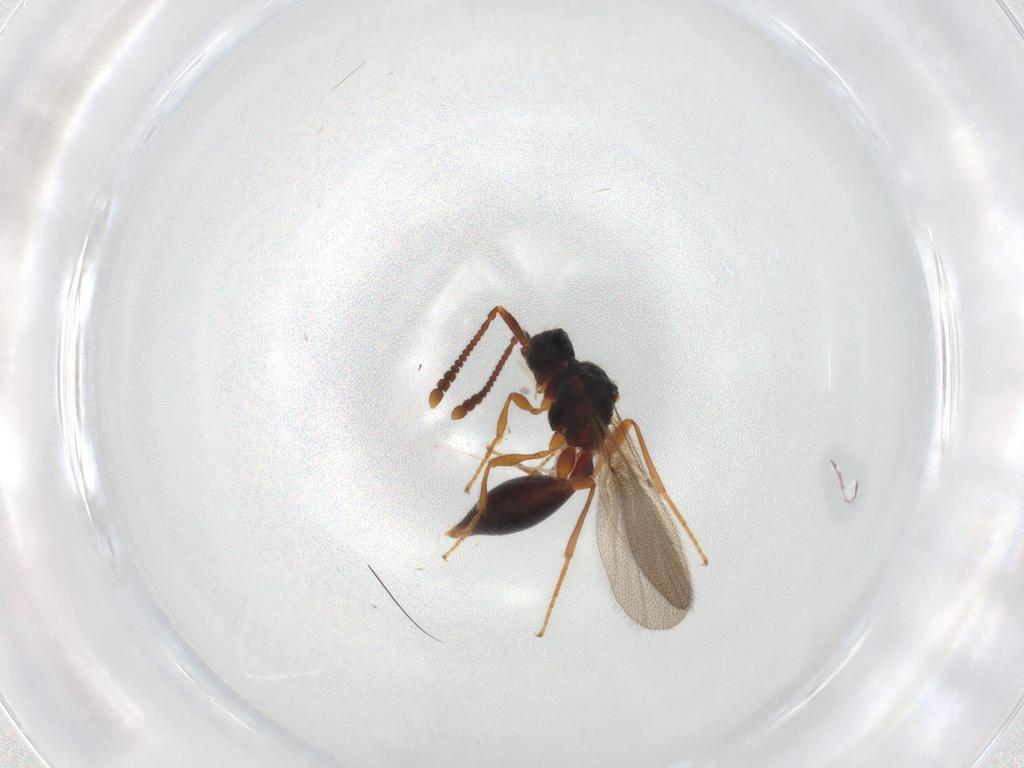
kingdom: Animalia
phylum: Arthropoda
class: Insecta
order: Hymenoptera
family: Diapriidae
